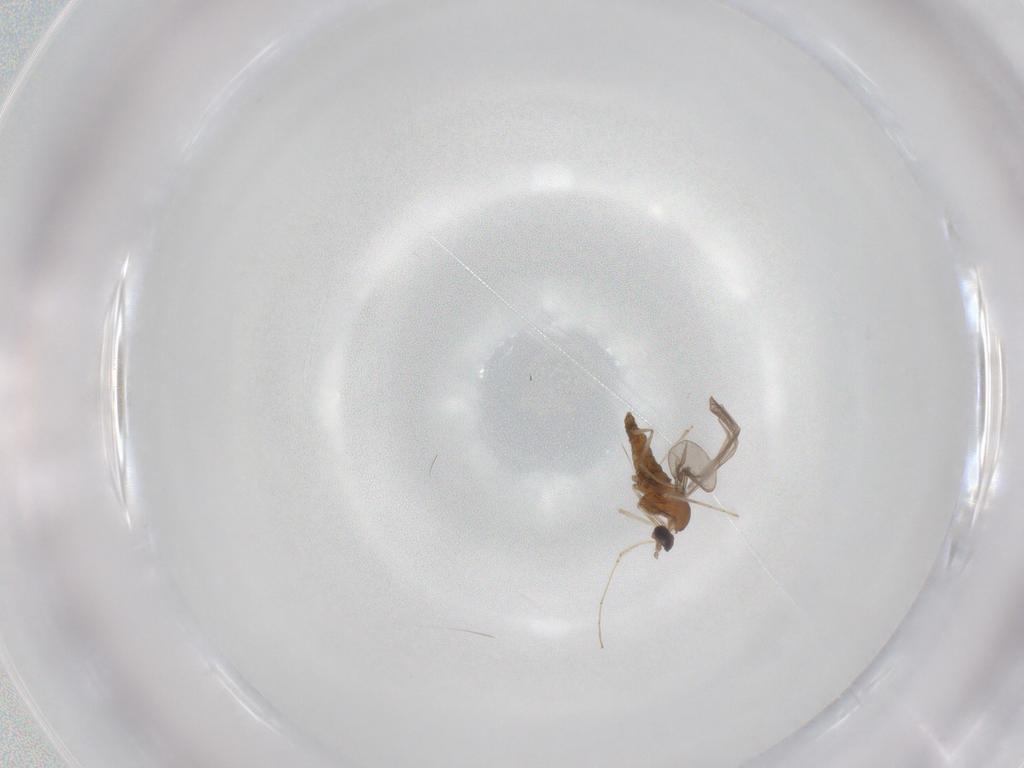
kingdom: Animalia
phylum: Arthropoda
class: Insecta
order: Diptera
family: Cecidomyiidae
